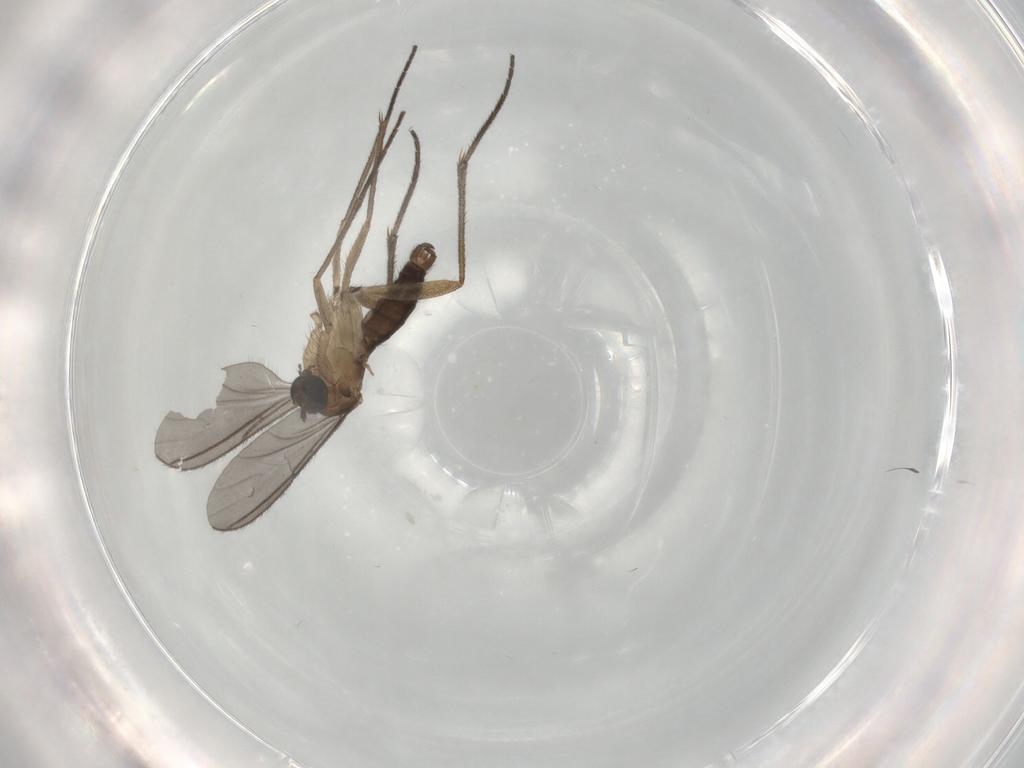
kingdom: Animalia
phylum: Arthropoda
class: Insecta
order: Diptera
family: Sciaridae
